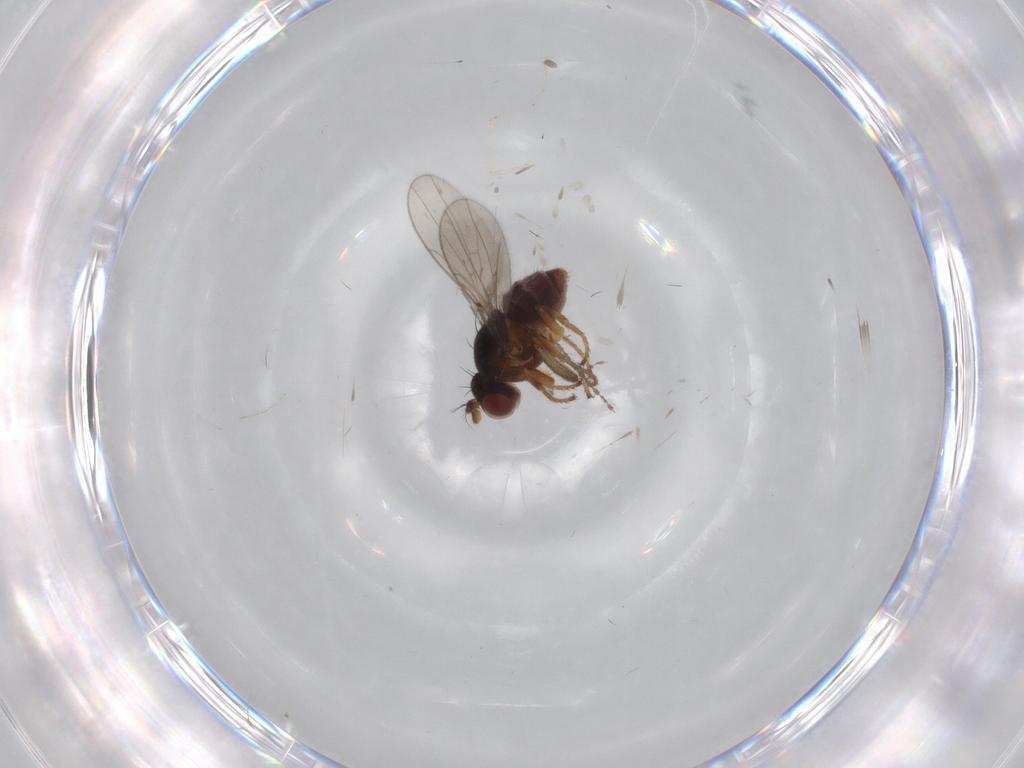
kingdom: Animalia
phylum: Arthropoda
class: Insecta
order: Diptera
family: Ephydridae
